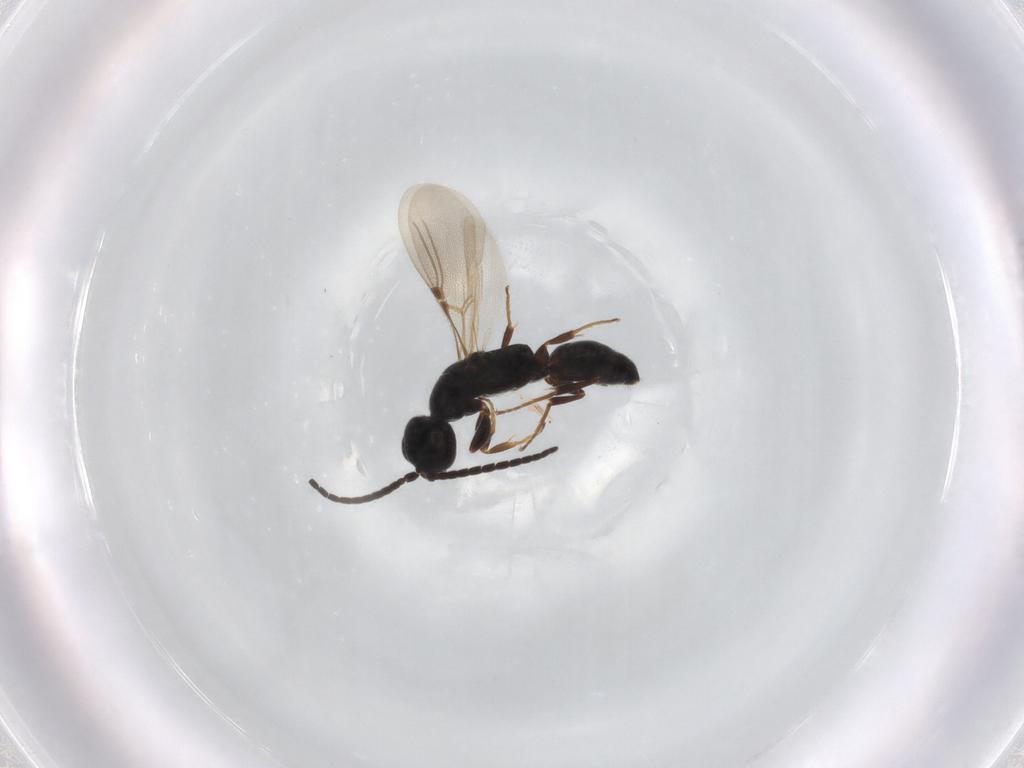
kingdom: Animalia
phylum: Arthropoda
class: Insecta
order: Hymenoptera
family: Bethylidae
